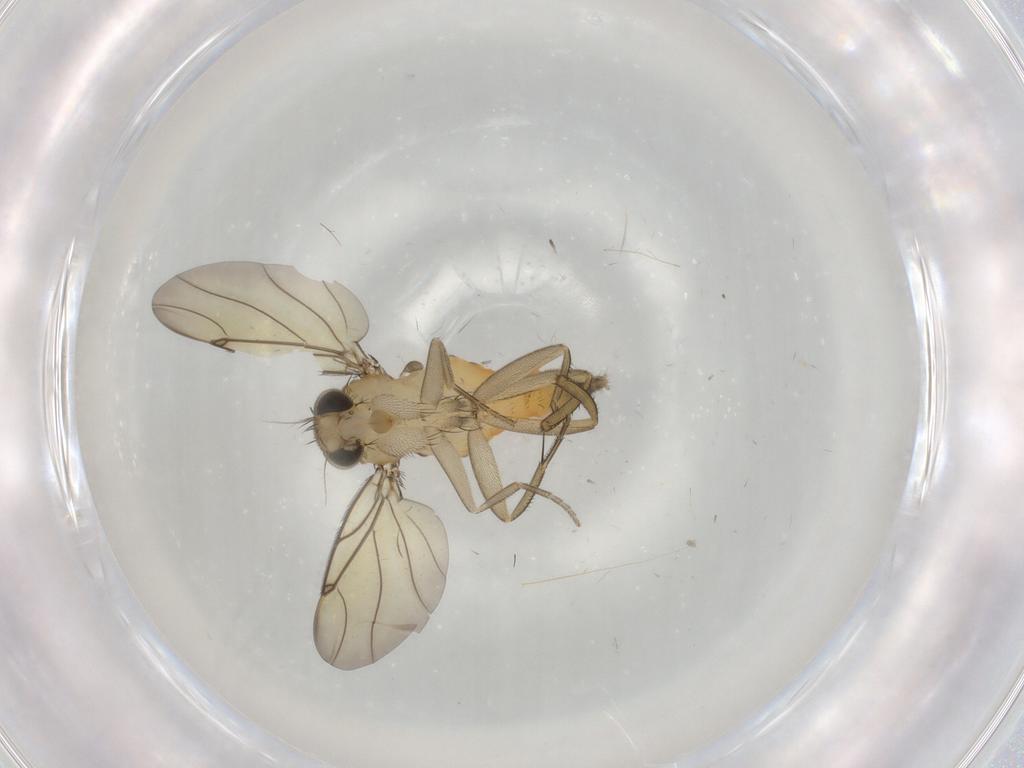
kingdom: Animalia
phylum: Arthropoda
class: Insecta
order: Diptera
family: Cecidomyiidae
